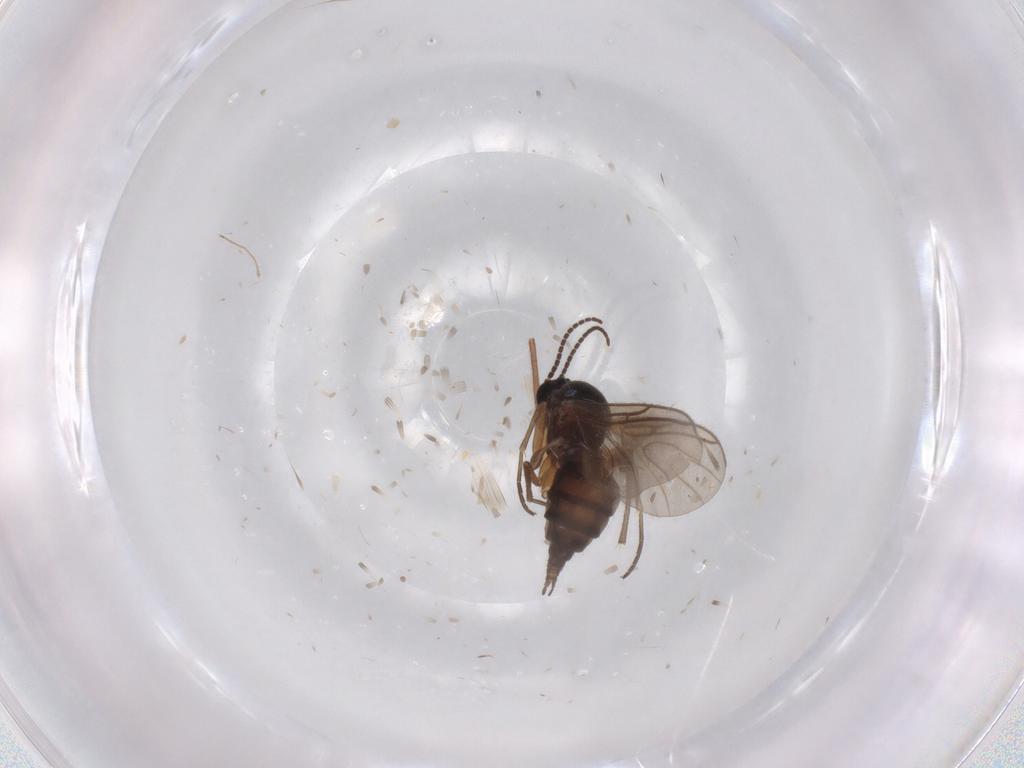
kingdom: Animalia
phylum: Arthropoda
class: Insecta
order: Diptera
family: Sciaridae
